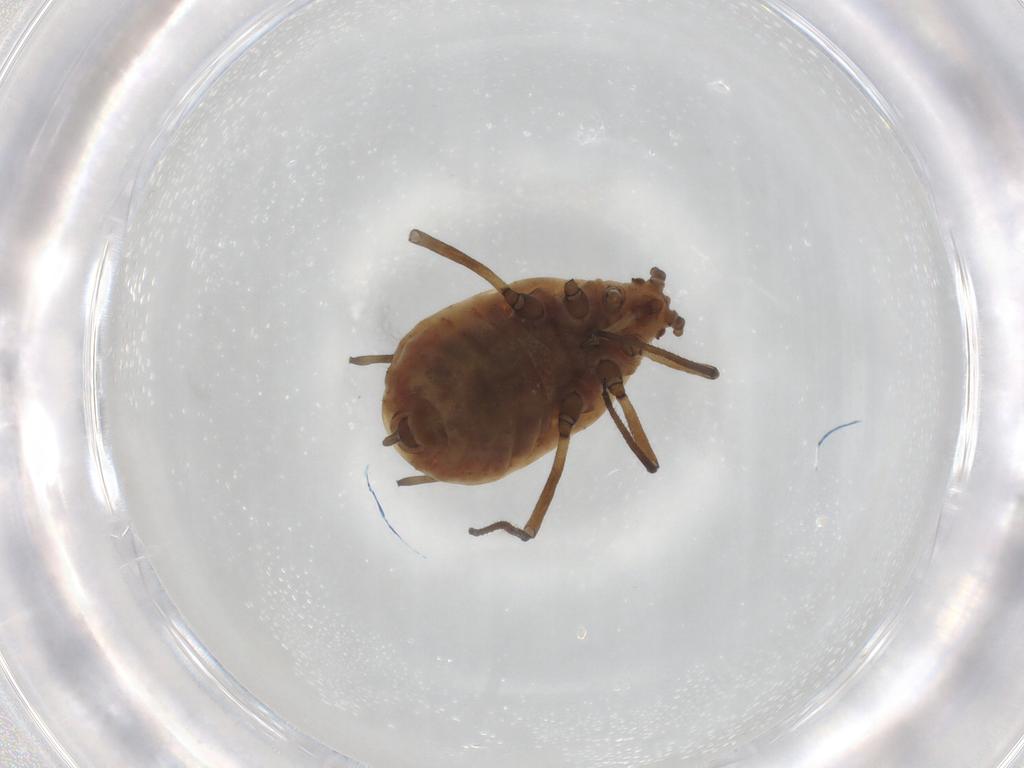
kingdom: Animalia
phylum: Arthropoda
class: Insecta
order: Hemiptera
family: Aphididae
